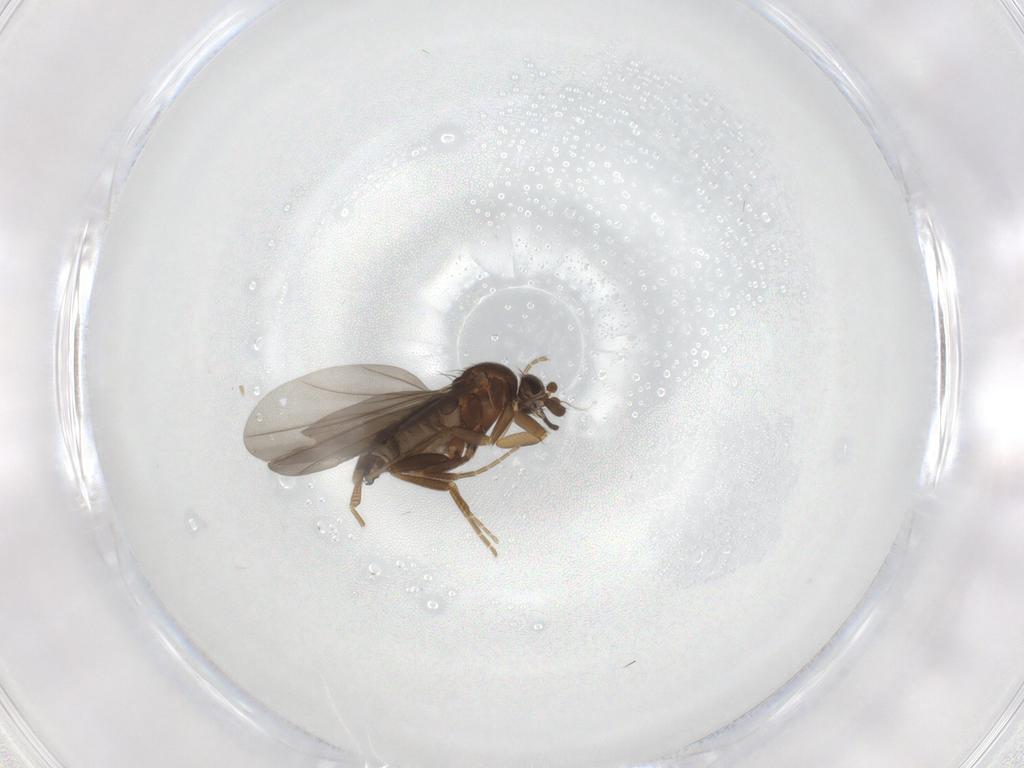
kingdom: Animalia
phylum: Arthropoda
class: Insecta
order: Diptera
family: Phoridae
